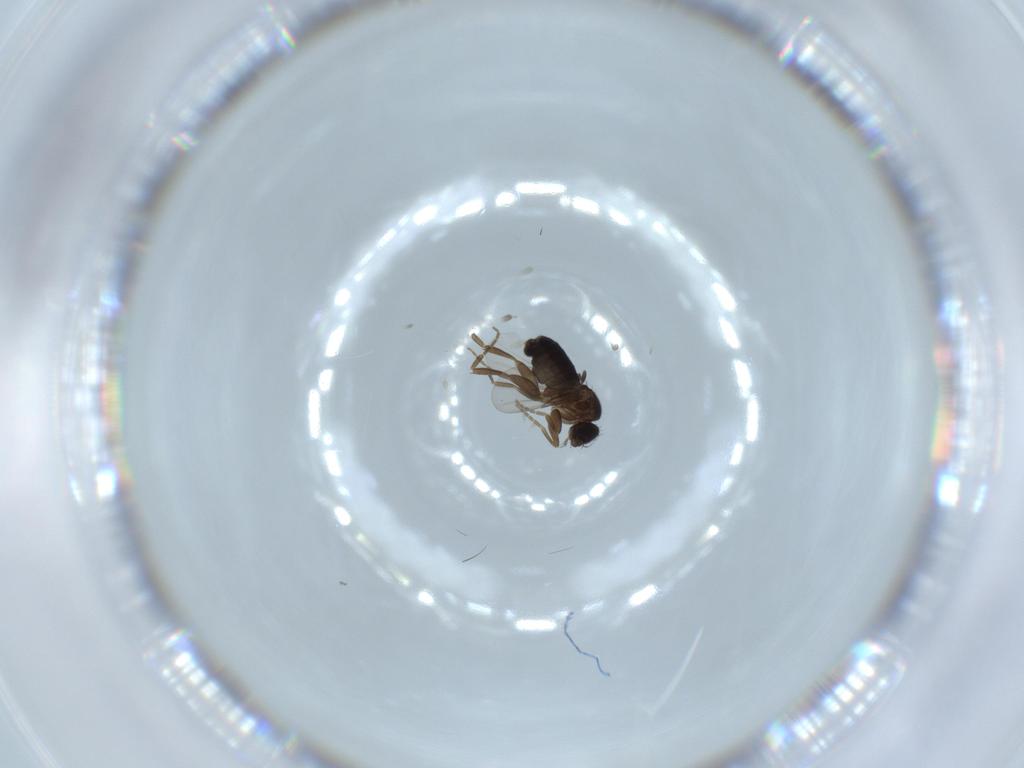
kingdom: Animalia
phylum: Arthropoda
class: Insecta
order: Diptera
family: Phoridae
